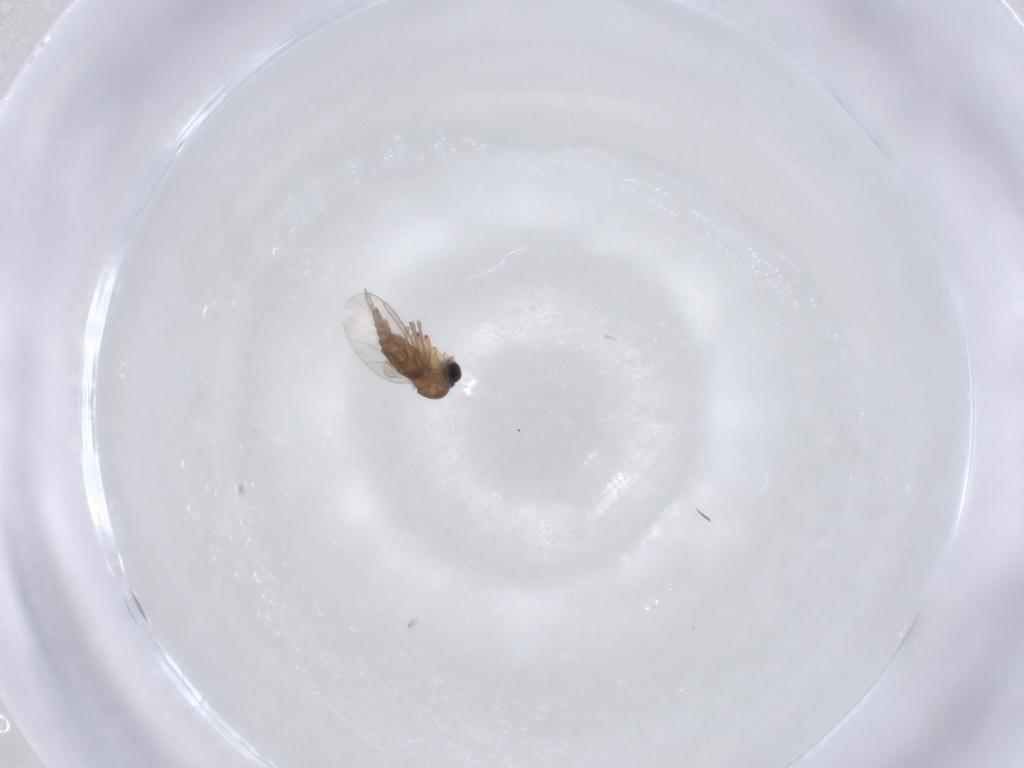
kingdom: Animalia
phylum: Arthropoda
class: Insecta
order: Diptera
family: Sciaridae
